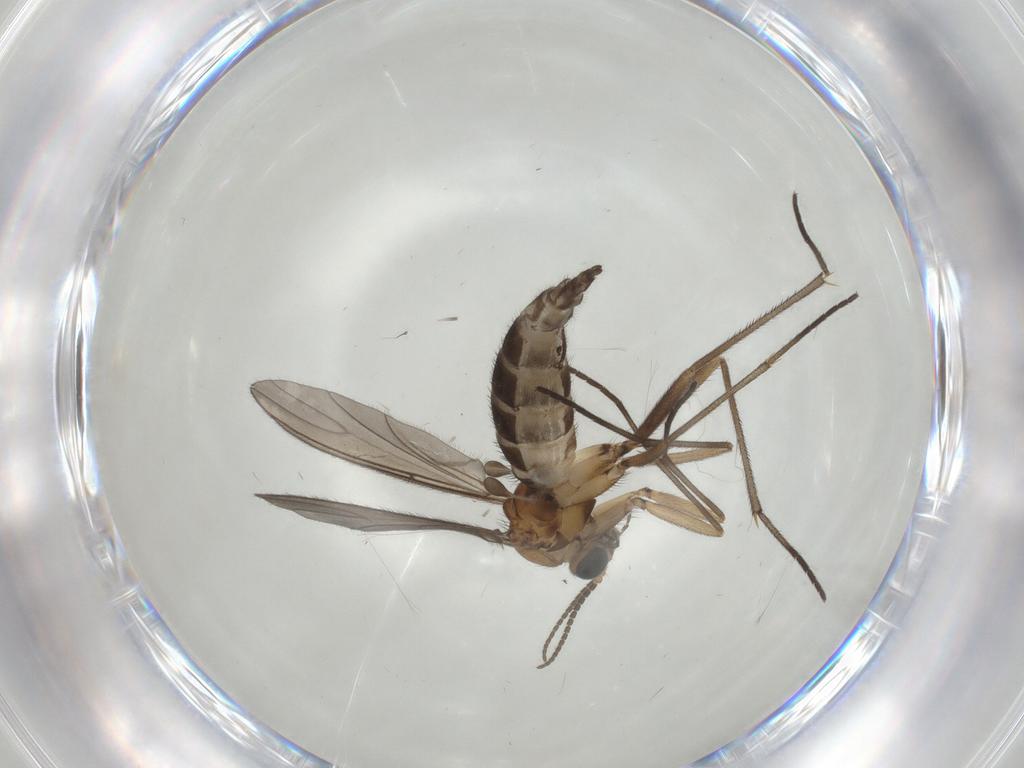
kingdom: Animalia
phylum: Arthropoda
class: Insecta
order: Diptera
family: Sciaridae
